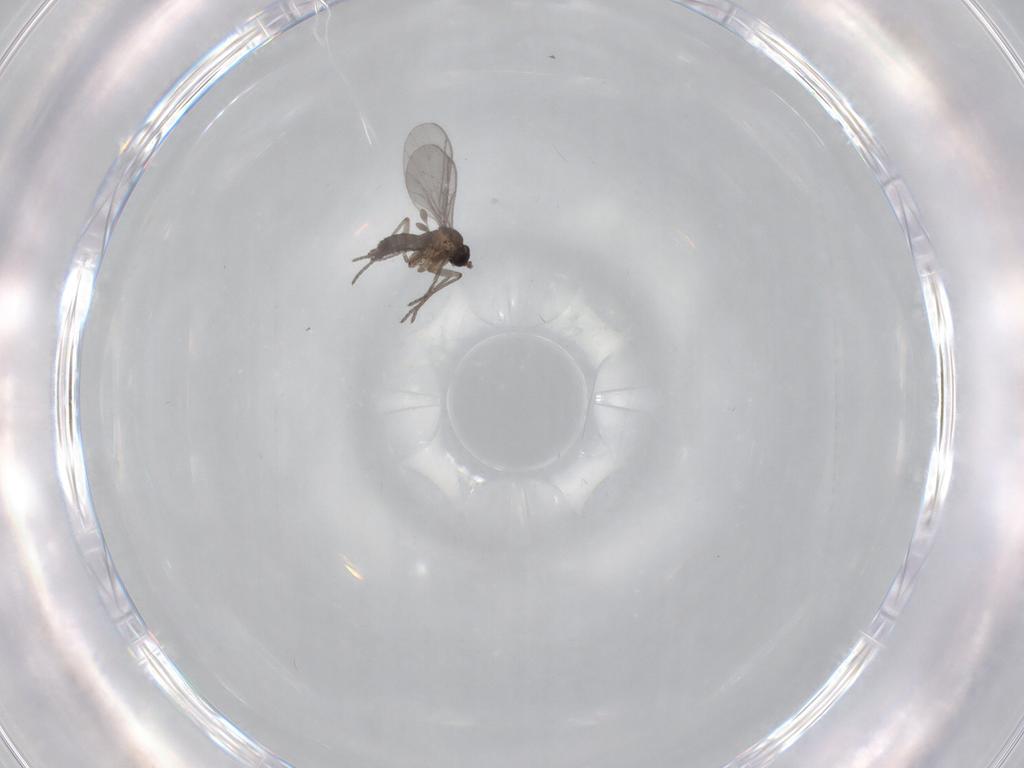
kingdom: Animalia
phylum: Arthropoda
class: Insecta
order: Diptera
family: Sciaridae
